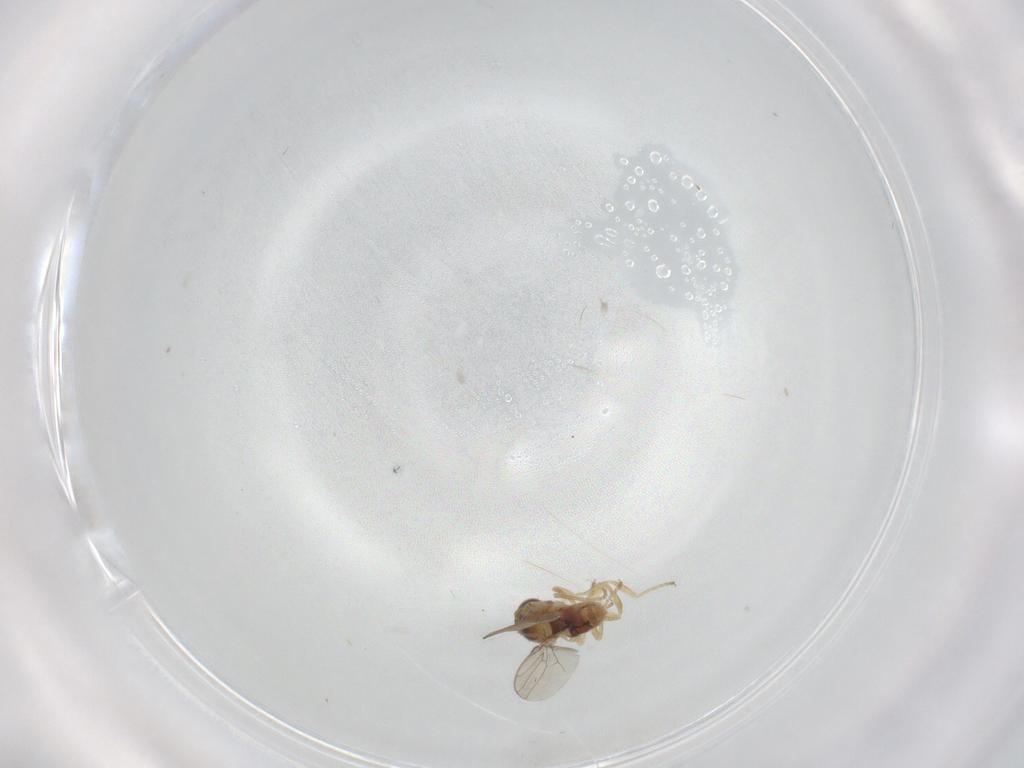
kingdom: Animalia
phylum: Arthropoda
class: Insecta
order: Diptera
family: Chloropidae
